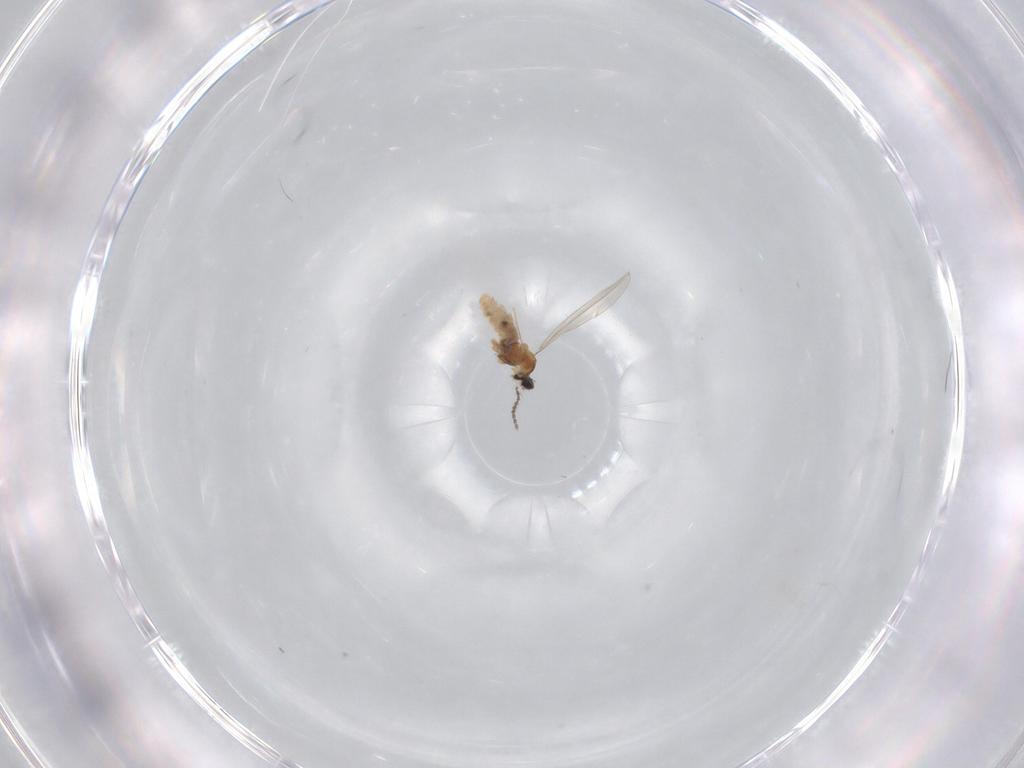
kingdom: Animalia
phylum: Arthropoda
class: Insecta
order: Diptera
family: Cecidomyiidae
